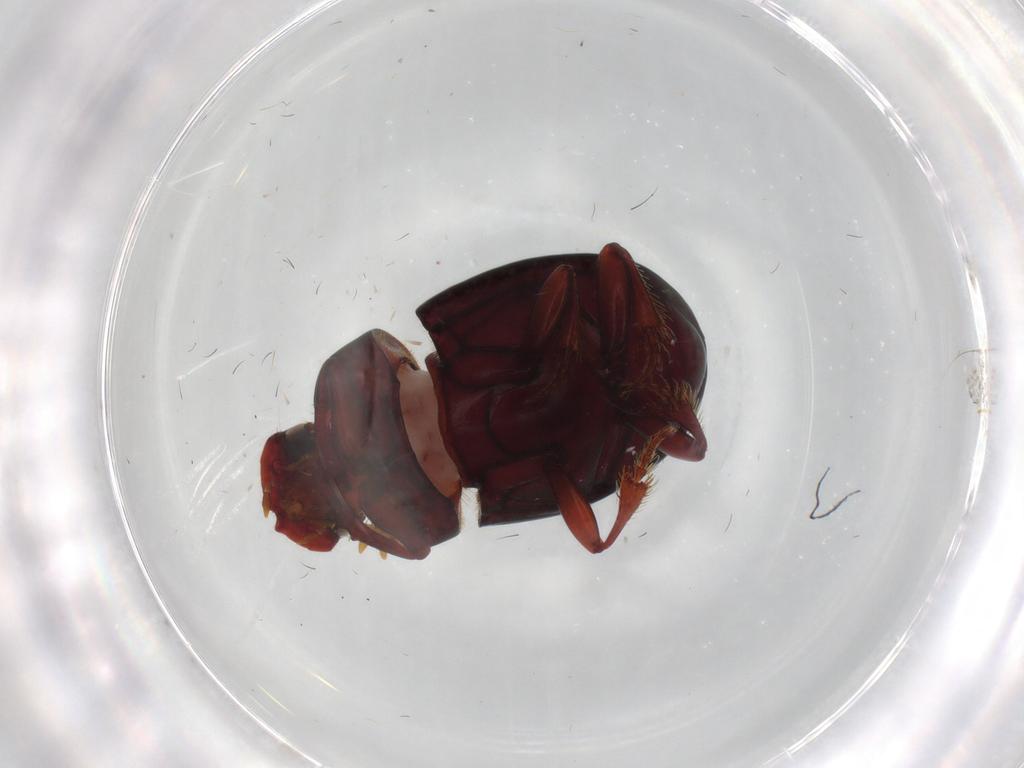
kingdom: Animalia
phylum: Arthropoda
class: Insecta
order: Coleoptera
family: Scarabaeidae
